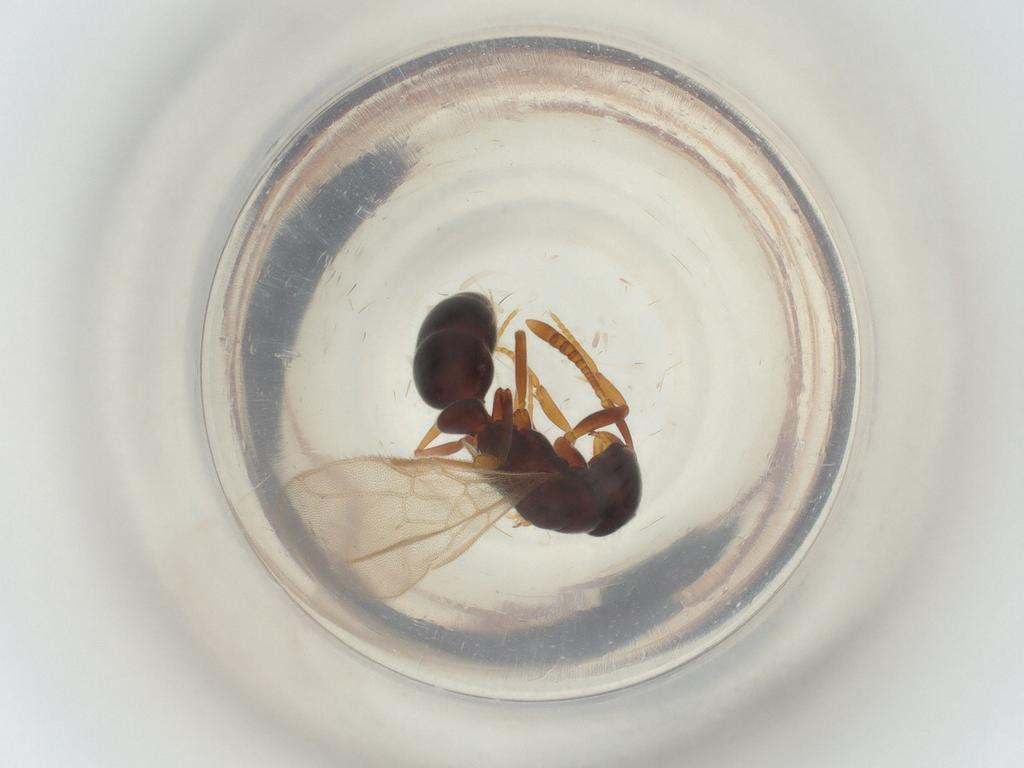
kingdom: Animalia
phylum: Arthropoda
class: Insecta
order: Hymenoptera
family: Formicidae
